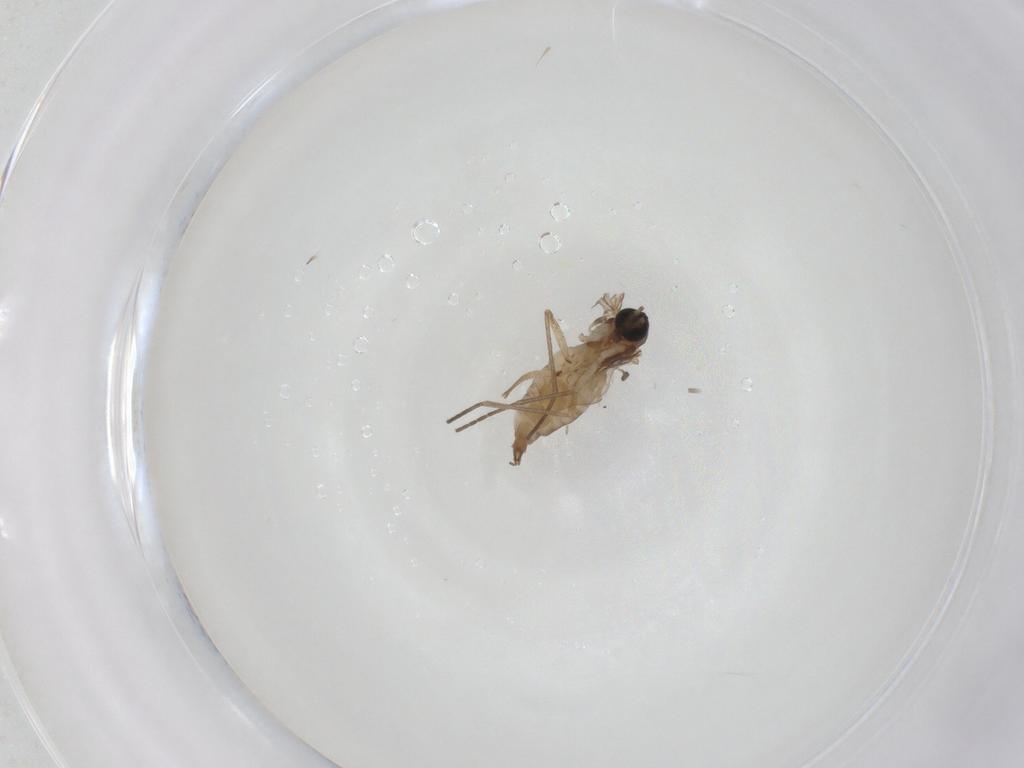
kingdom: Animalia
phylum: Arthropoda
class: Insecta
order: Diptera
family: Sciaridae
